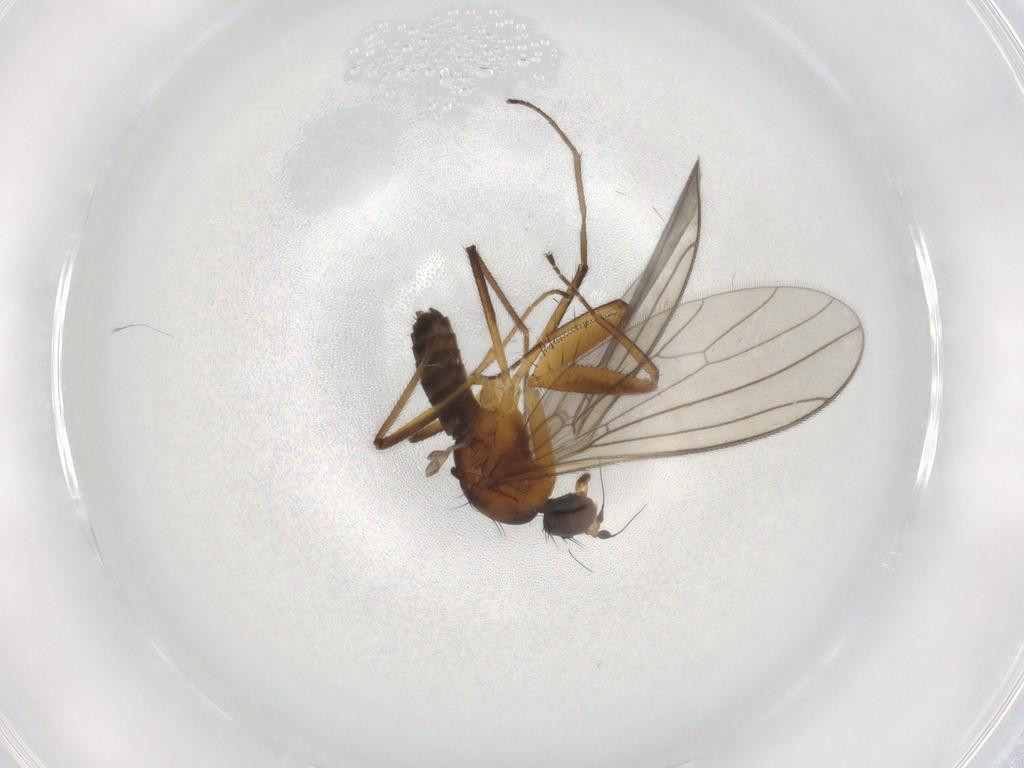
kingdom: Animalia
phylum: Arthropoda
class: Insecta
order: Diptera
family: Empididae
